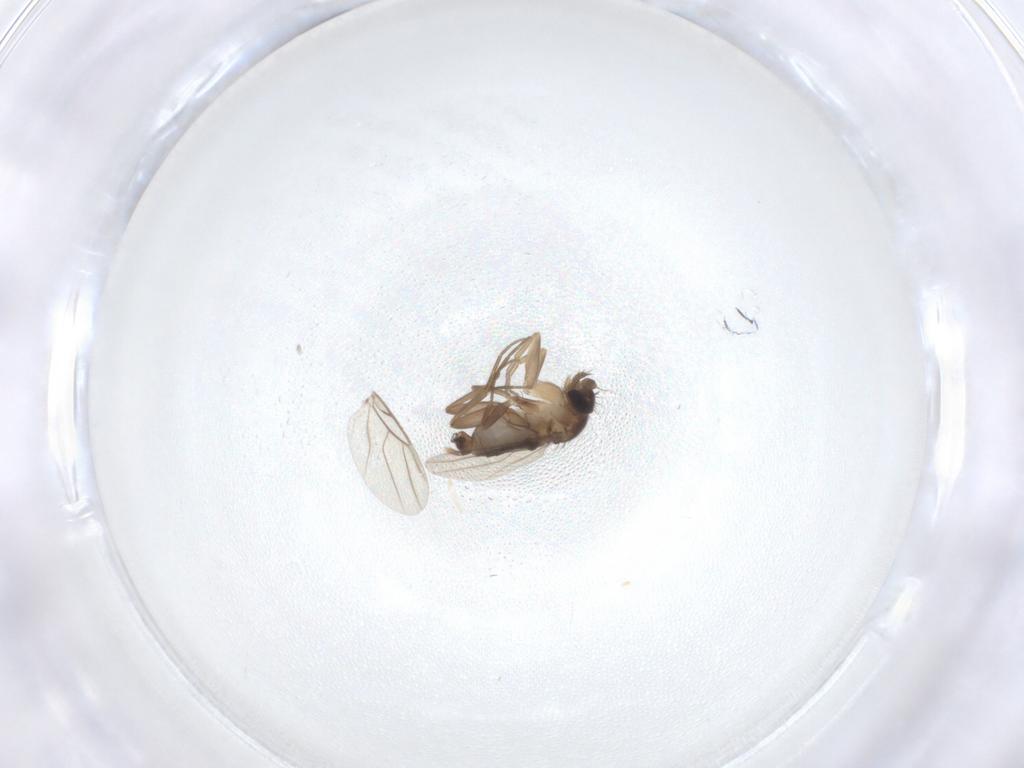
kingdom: Animalia
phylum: Arthropoda
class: Insecta
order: Diptera
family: Phoridae
